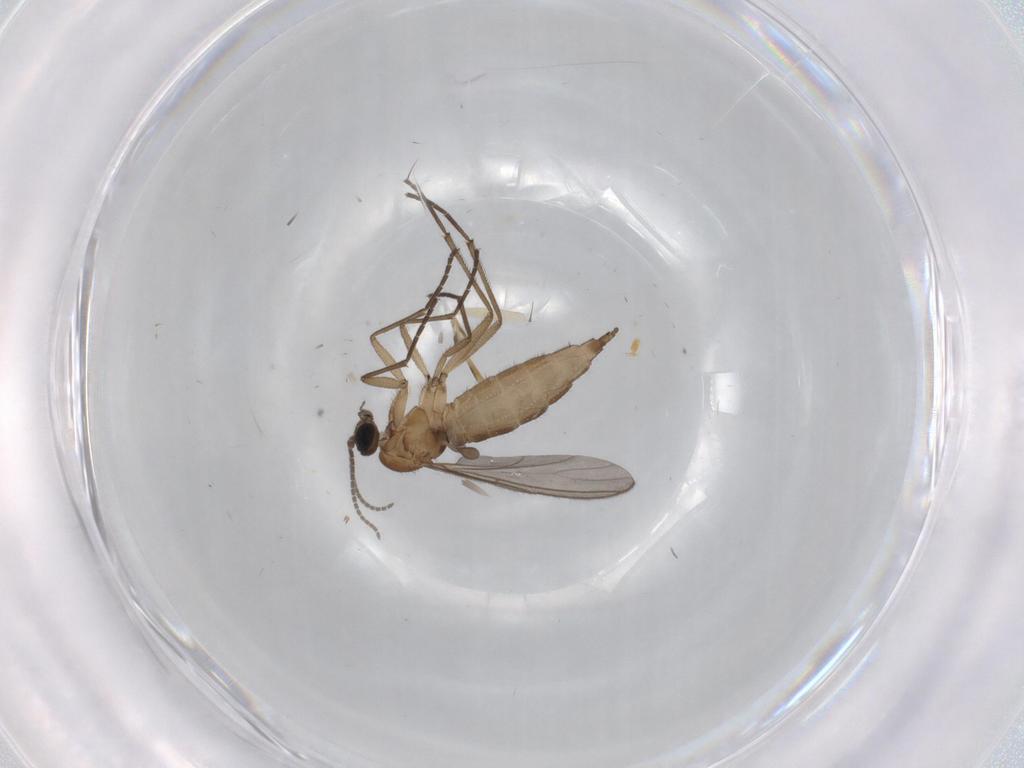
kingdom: Animalia
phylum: Arthropoda
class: Insecta
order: Diptera
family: Sciaridae
